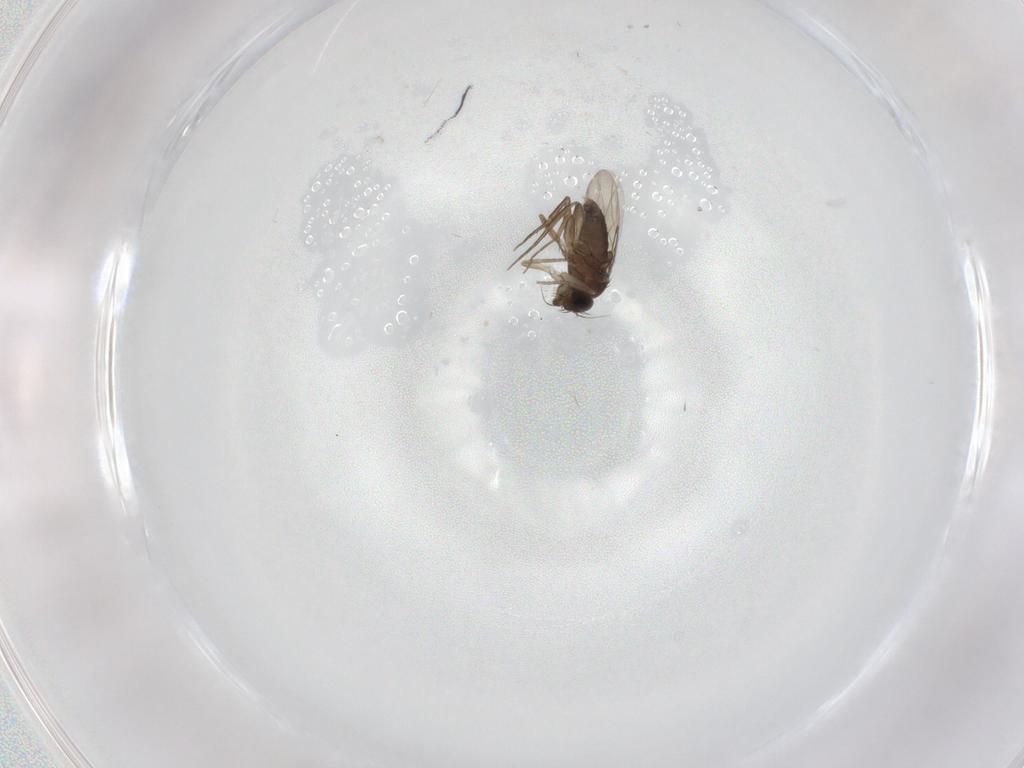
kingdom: Animalia
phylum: Arthropoda
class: Insecta
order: Diptera
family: Phoridae
